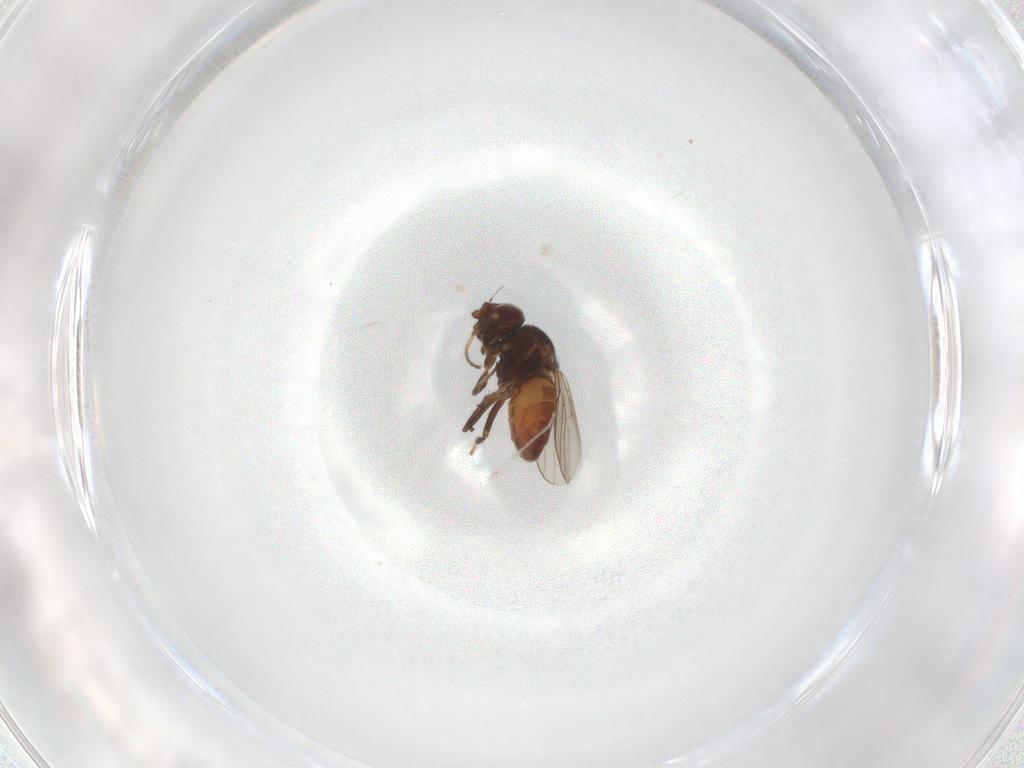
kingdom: Animalia
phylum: Arthropoda
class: Insecta
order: Diptera
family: Chloropidae
